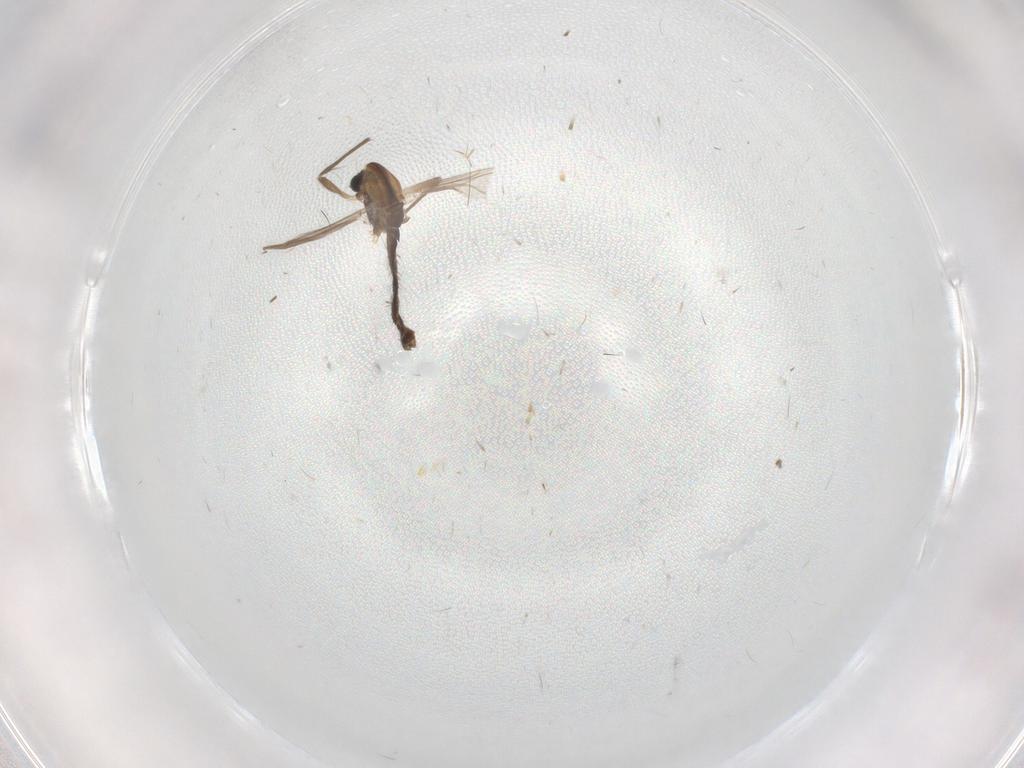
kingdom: Animalia
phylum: Arthropoda
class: Insecta
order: Diptera
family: Chironomidae
